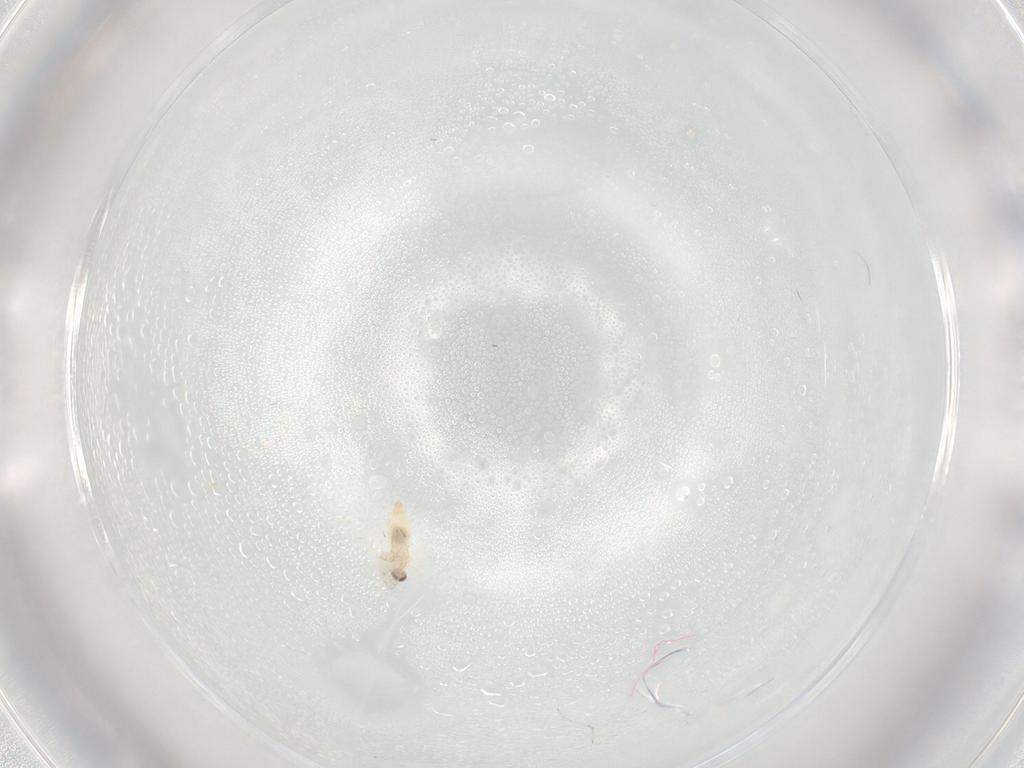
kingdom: Animalia
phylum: Arthropoda
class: Insecta
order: Diptera
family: Cecidomyiidae
